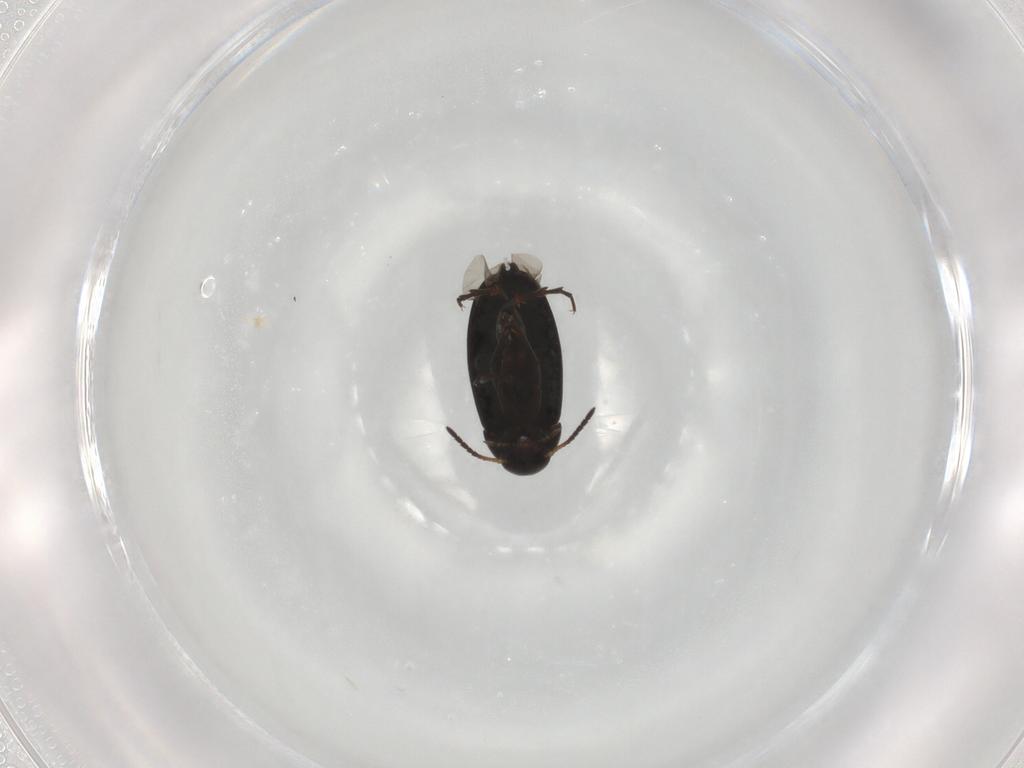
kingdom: Animalia
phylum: Arthropoda
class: Insecta
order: Coleoptera
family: Scraptiidae
